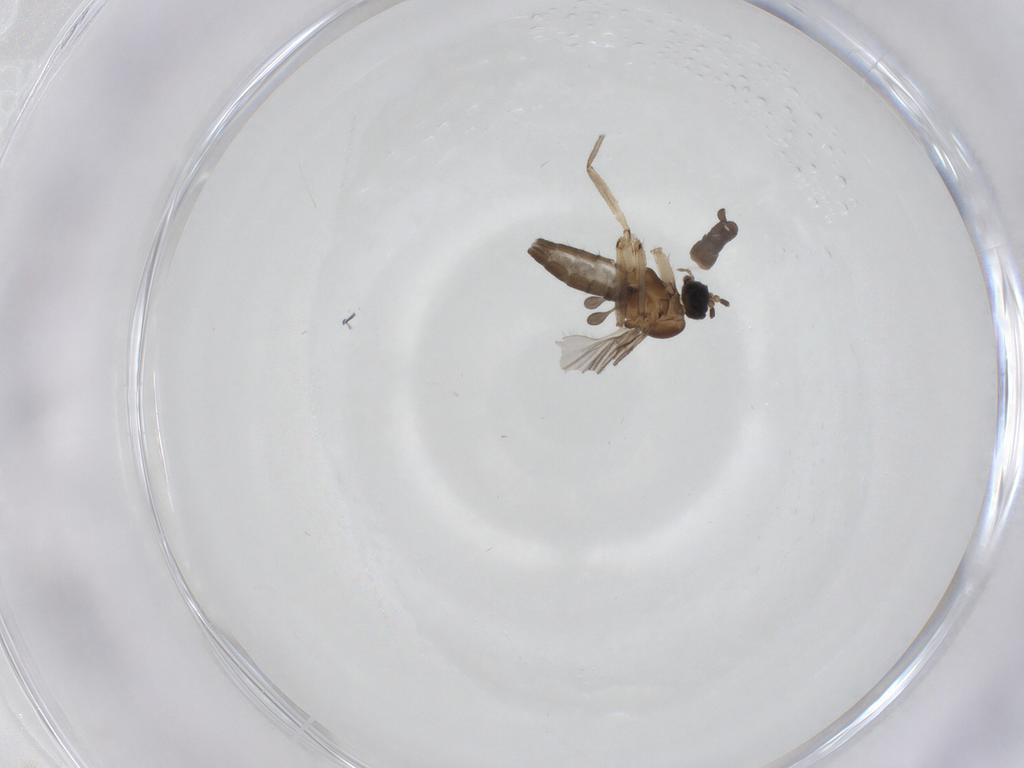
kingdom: Animalia
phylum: Arthropoda
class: Insecta
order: Diptera
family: Sciaridae
